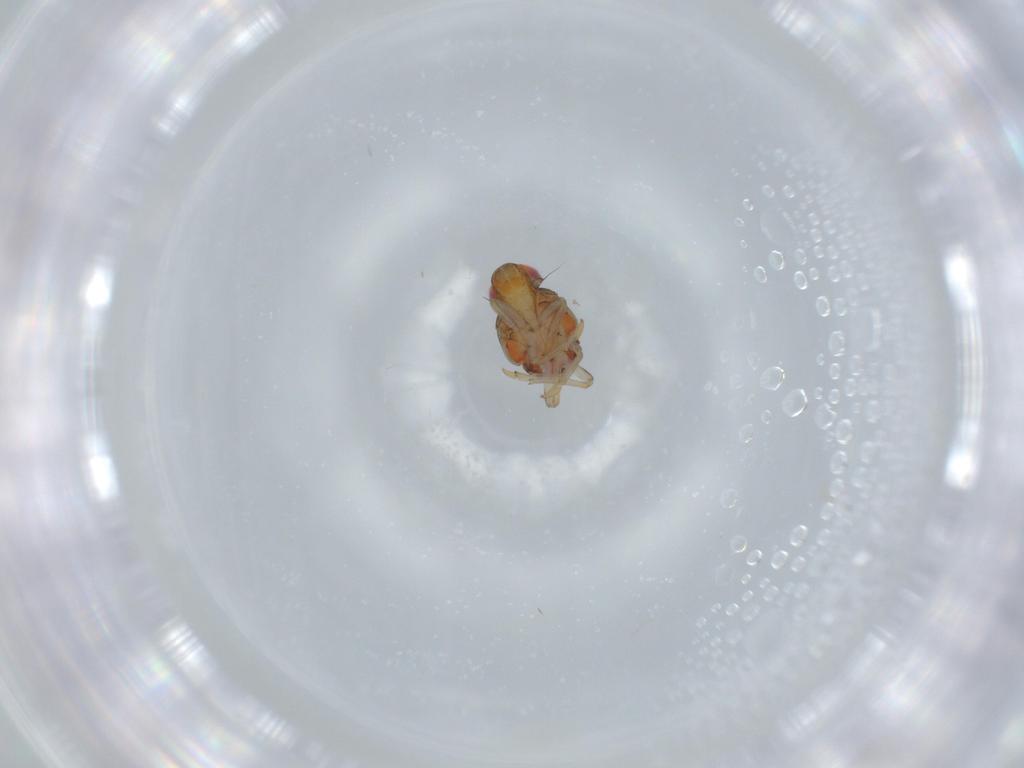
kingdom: Animalia
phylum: Arthropoda
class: Insecta
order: Hemiptera
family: Issidae
